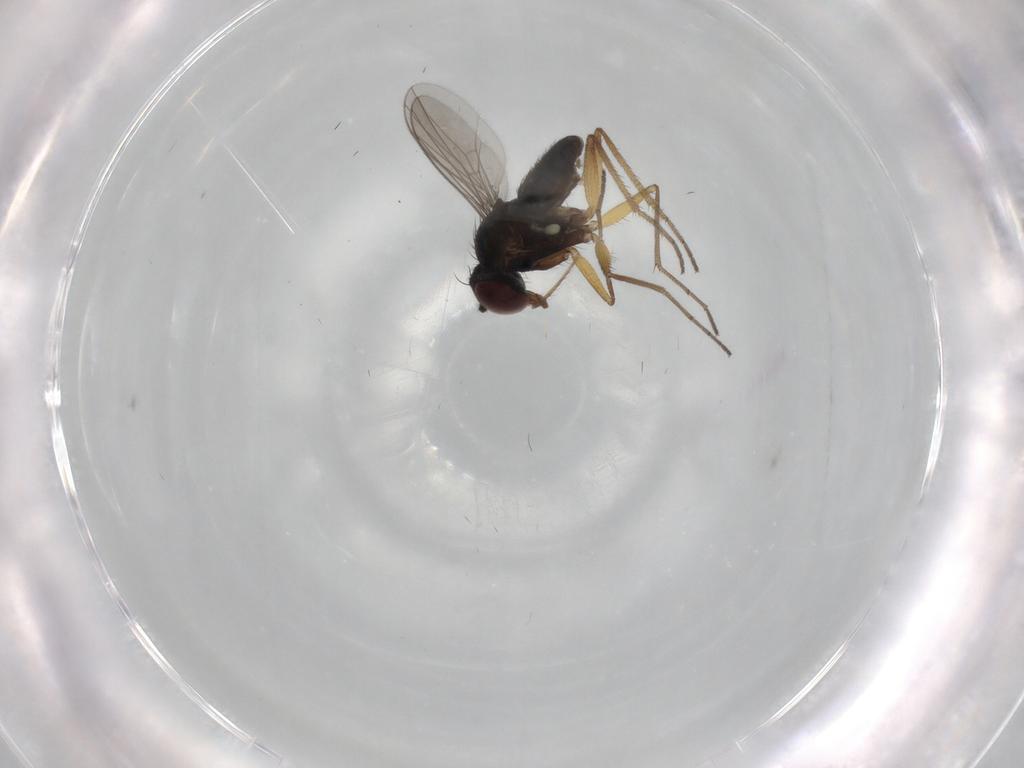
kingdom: Animalia
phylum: Arthropoda
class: Insecta
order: Diptera
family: Dolichopodidae
